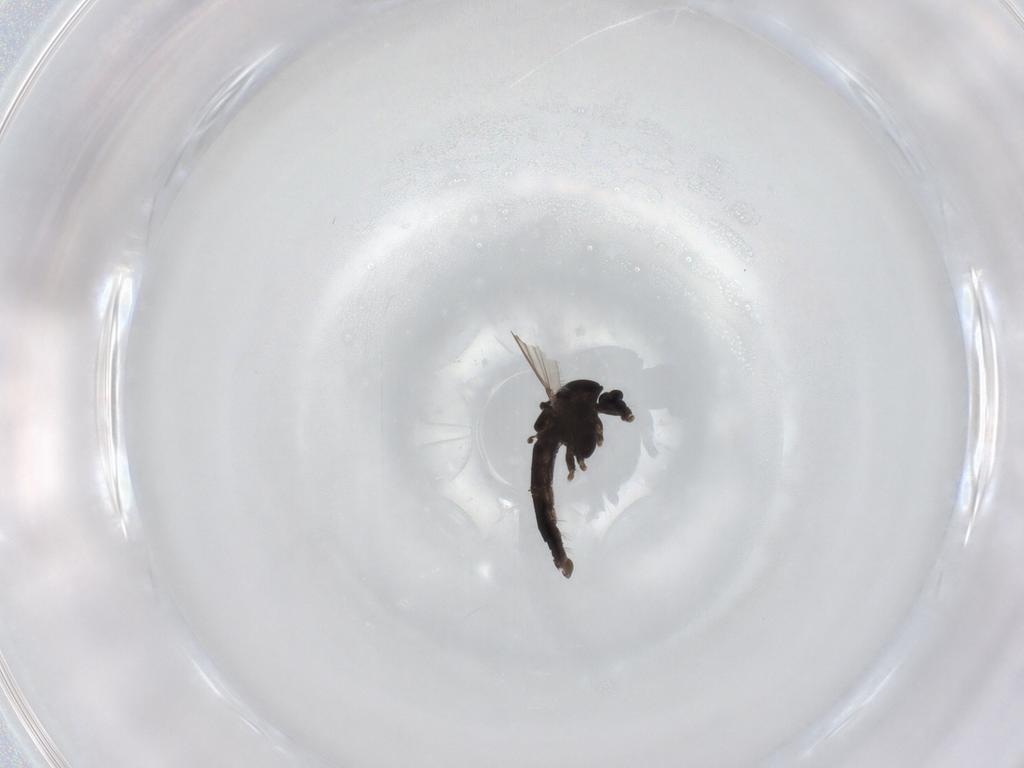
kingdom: Animalia
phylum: Arthropoda
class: Insecta
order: Diptera
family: Chironomidae
